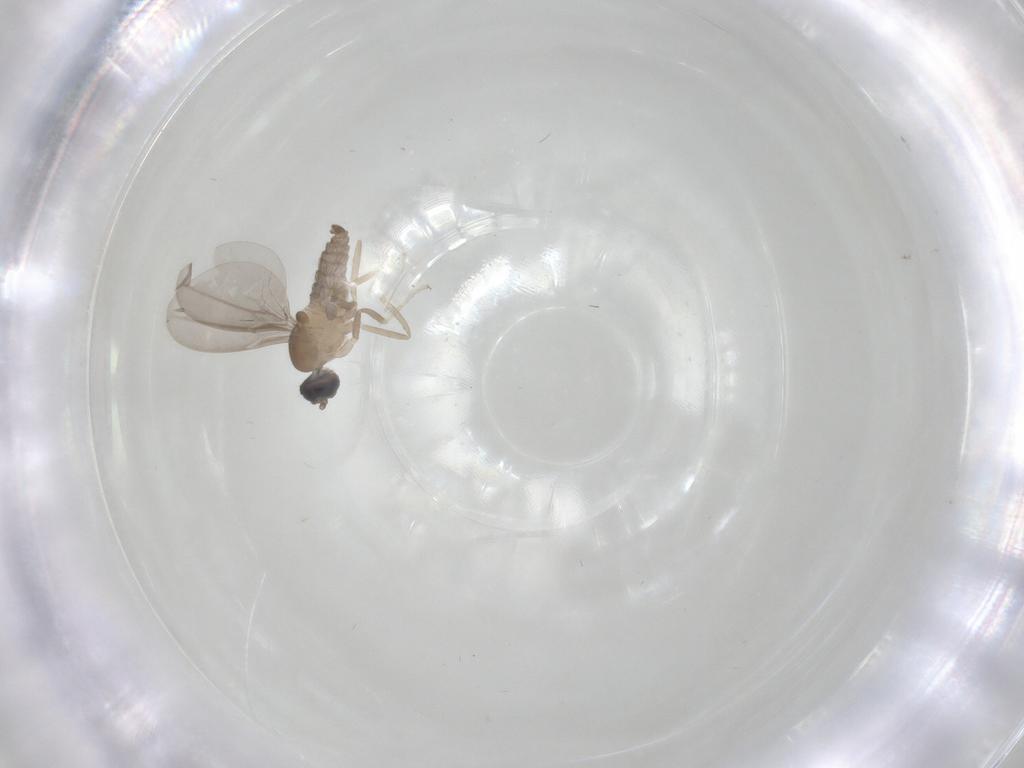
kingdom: Animalia
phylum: Arthropoda
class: Insecta
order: Diptera
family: Cecidomyiidae
